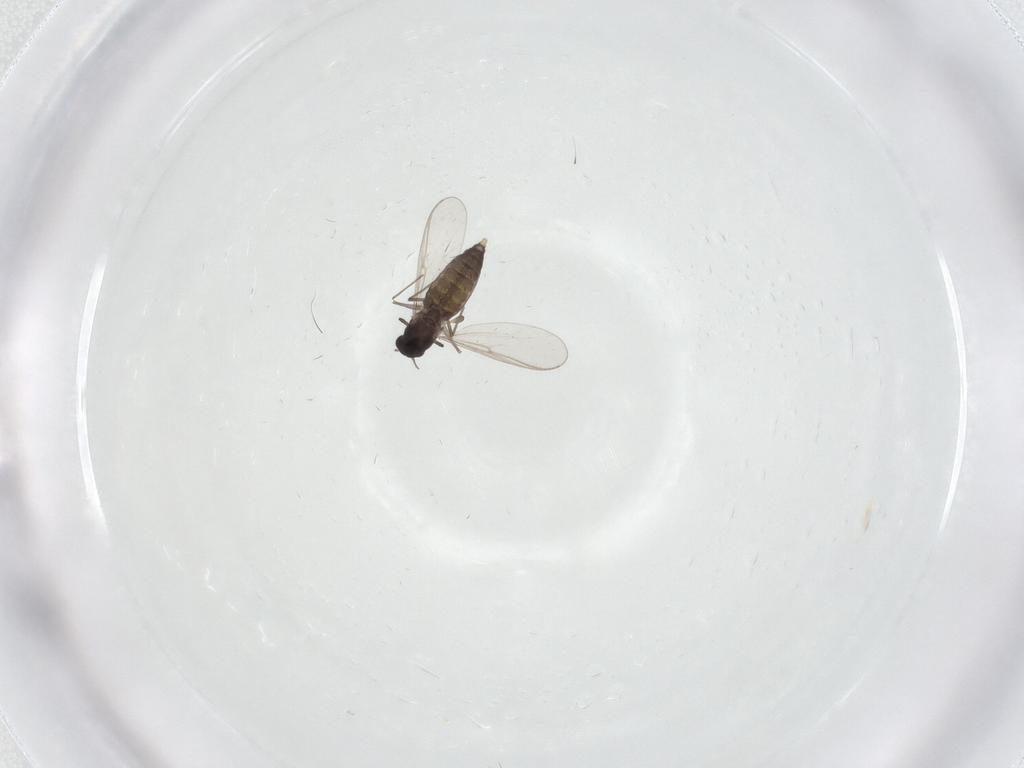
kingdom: Animalia
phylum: Arthropoda
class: Insecta
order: Diptera
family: Chironomidae
